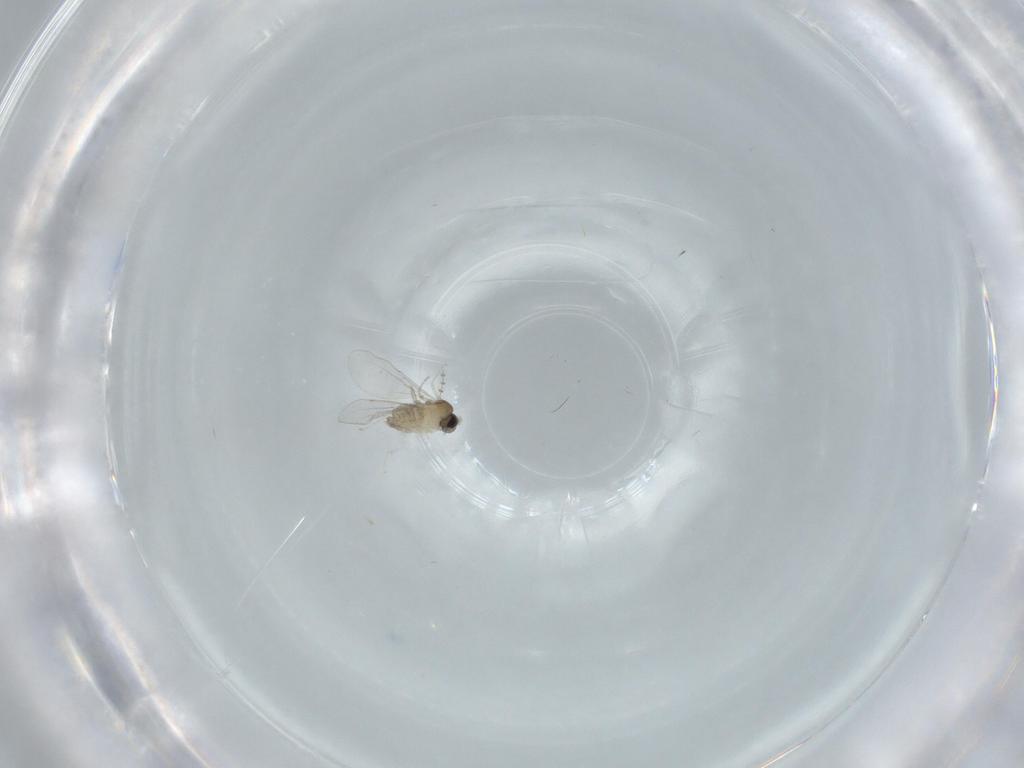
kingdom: Animalia
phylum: Arthropoda
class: Insecta
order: Diptera
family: Cecidomyiidae
